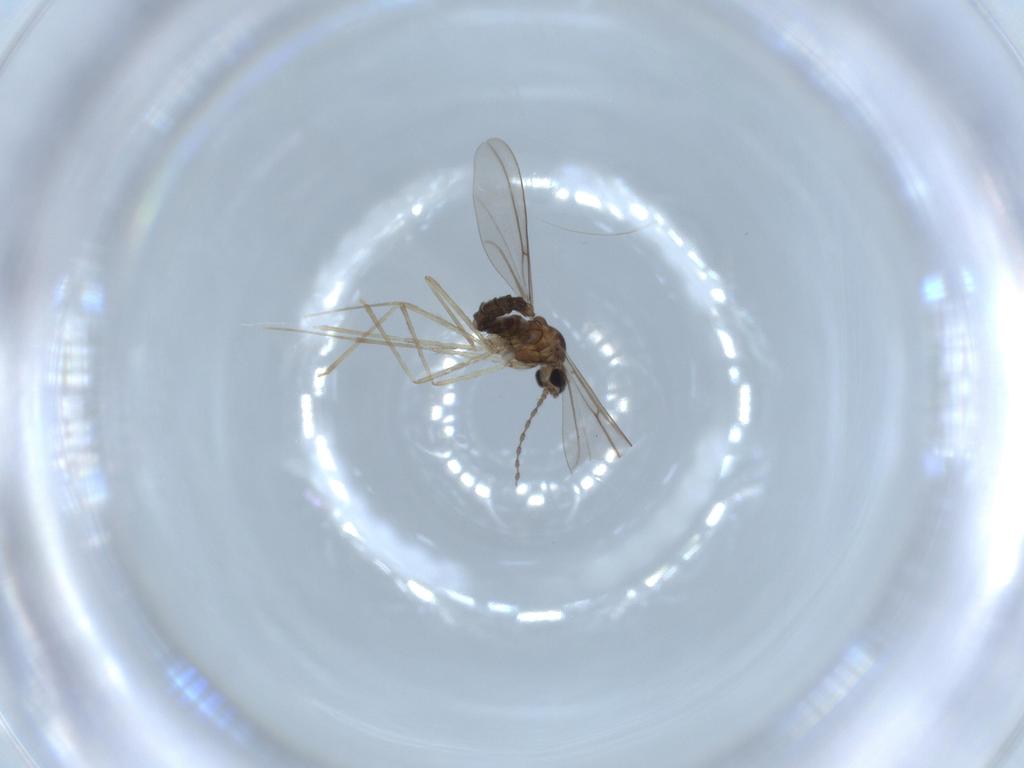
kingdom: Animalia
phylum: Arthropoda
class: Insecta
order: Diptera
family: Cecidomyiidae
